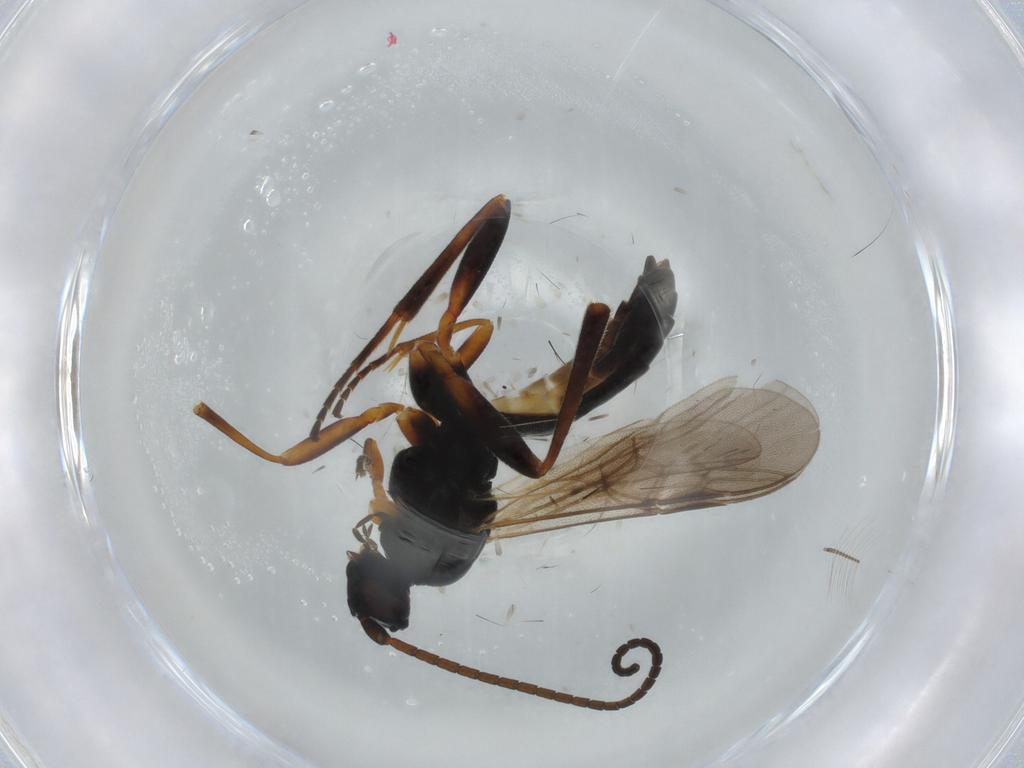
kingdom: Animalia
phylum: Arthropoda
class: Insecta
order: Hymenoptera
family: Braconidae
